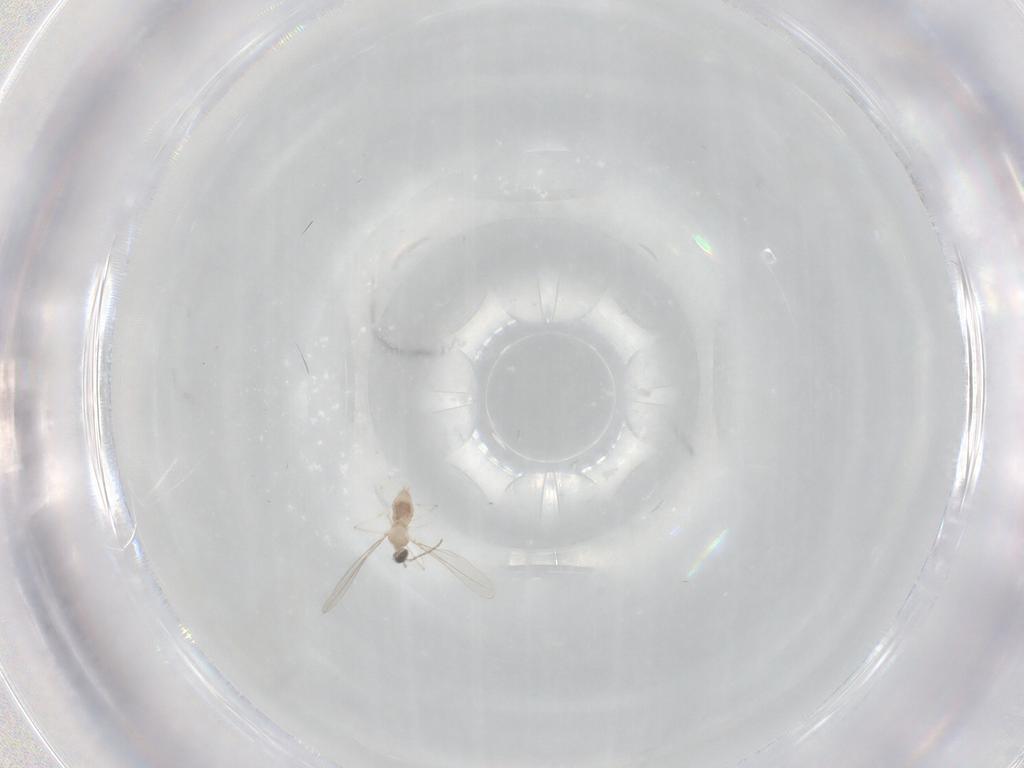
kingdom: Animalia
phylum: Arthropoda
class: Insecta
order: Diptera
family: Cecidomyiidae
